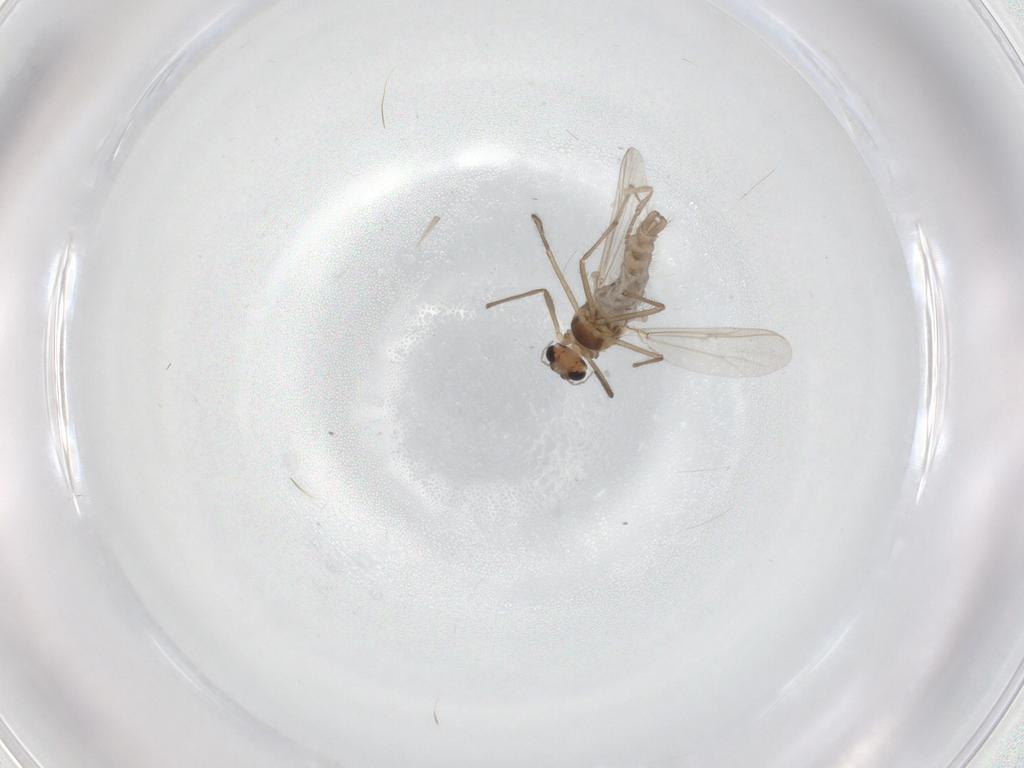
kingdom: Animalia
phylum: Arthropoda
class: Insecta
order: Diptera
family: Chironomidae
